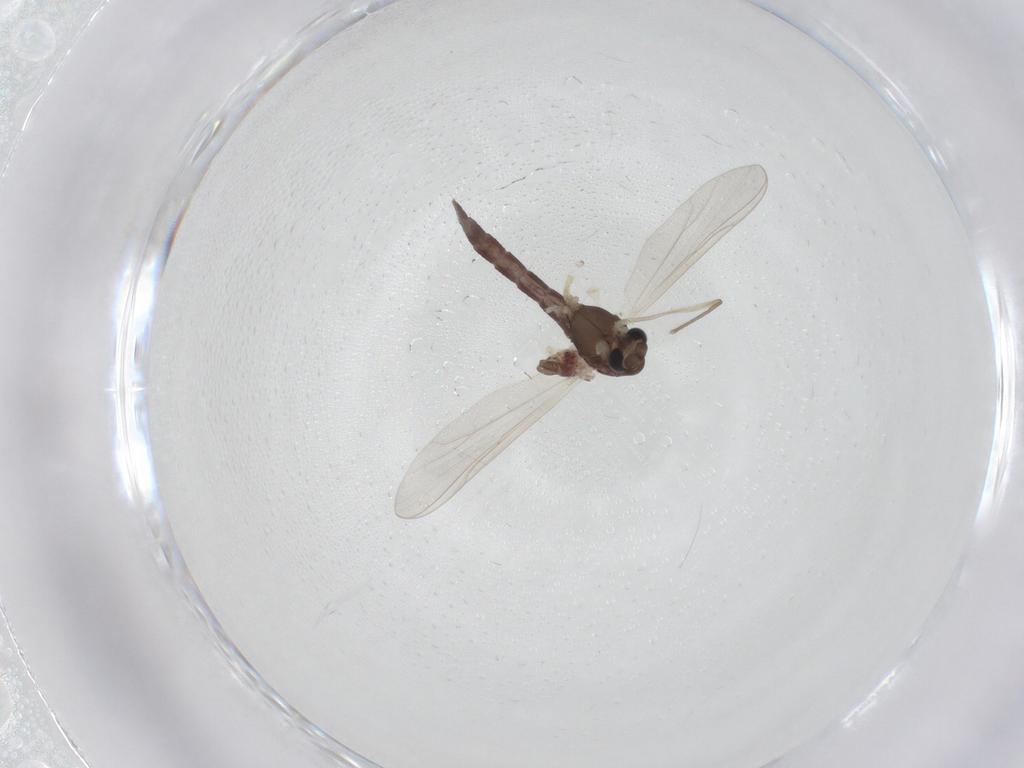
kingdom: Animalia
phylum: Arthropoda
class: Insecta
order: Diptera
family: Chironomidae
